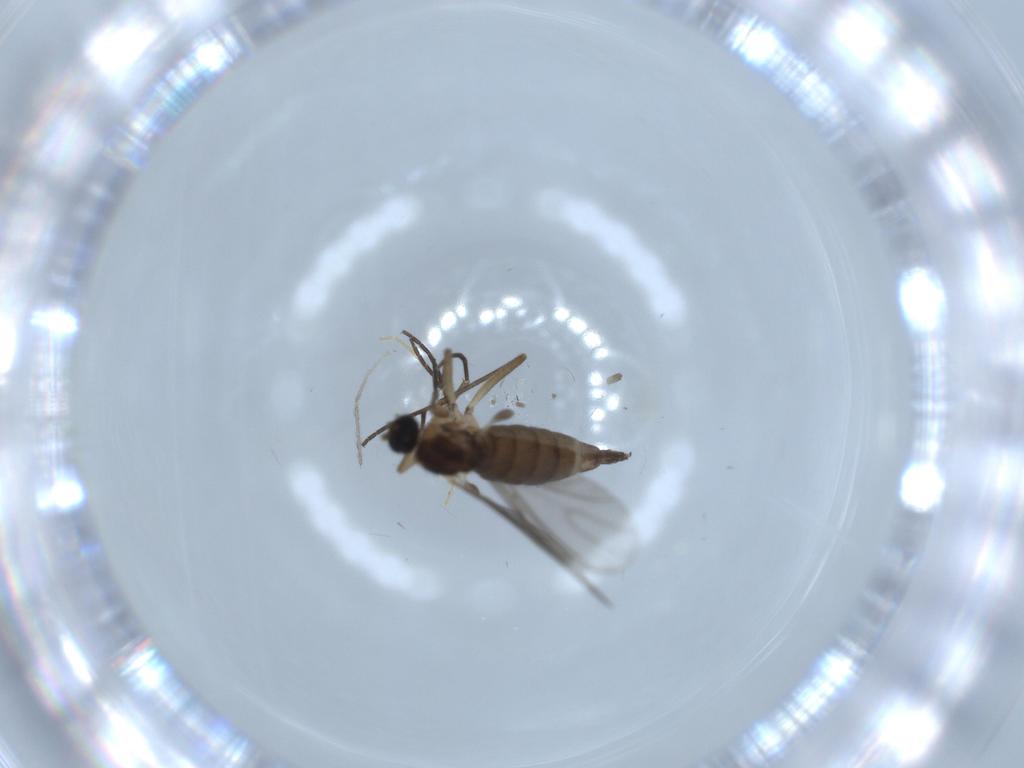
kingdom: Animalia
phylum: Arthropoda
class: Insecta
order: Diptera
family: Sciaridae
